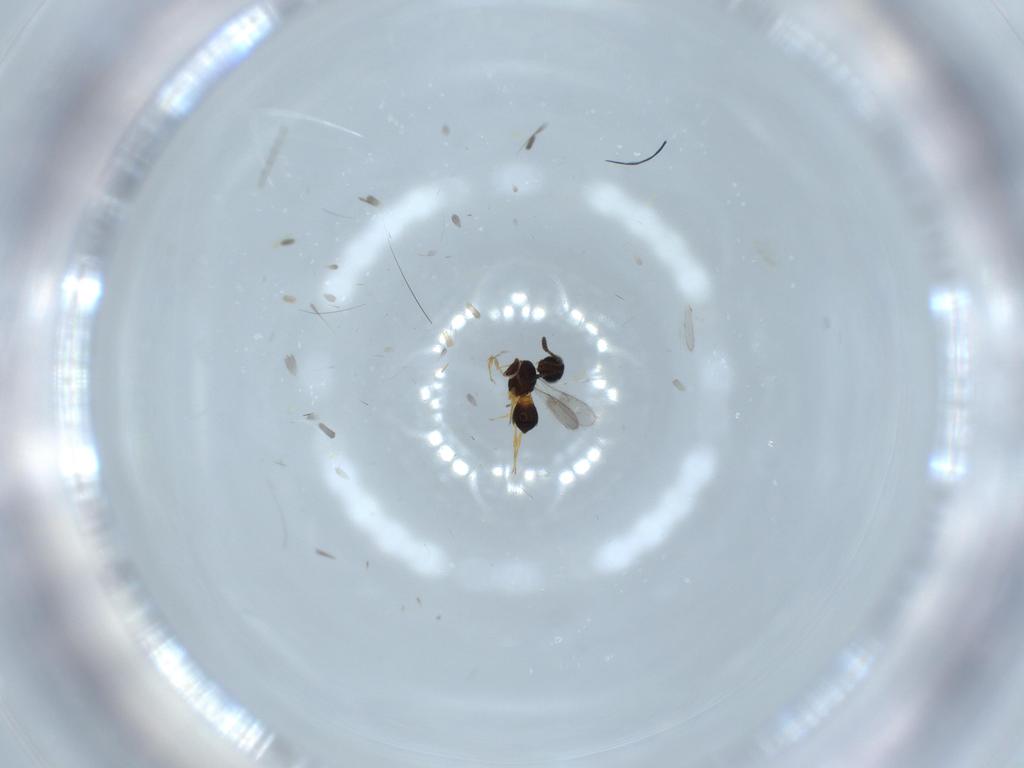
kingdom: Animalia
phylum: Arthropoda
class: Insecta
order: Hymenoptera
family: Scelionidae
